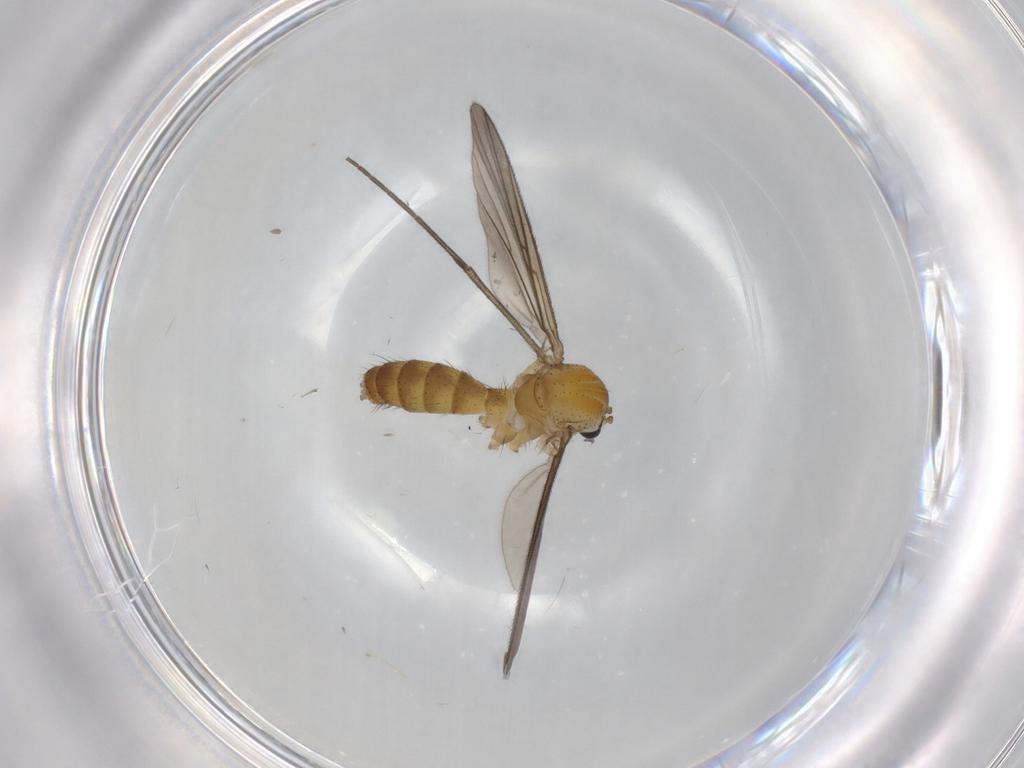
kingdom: Animalia
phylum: Arthropoda
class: Insecta
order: Diptera
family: Mycetophilidae
